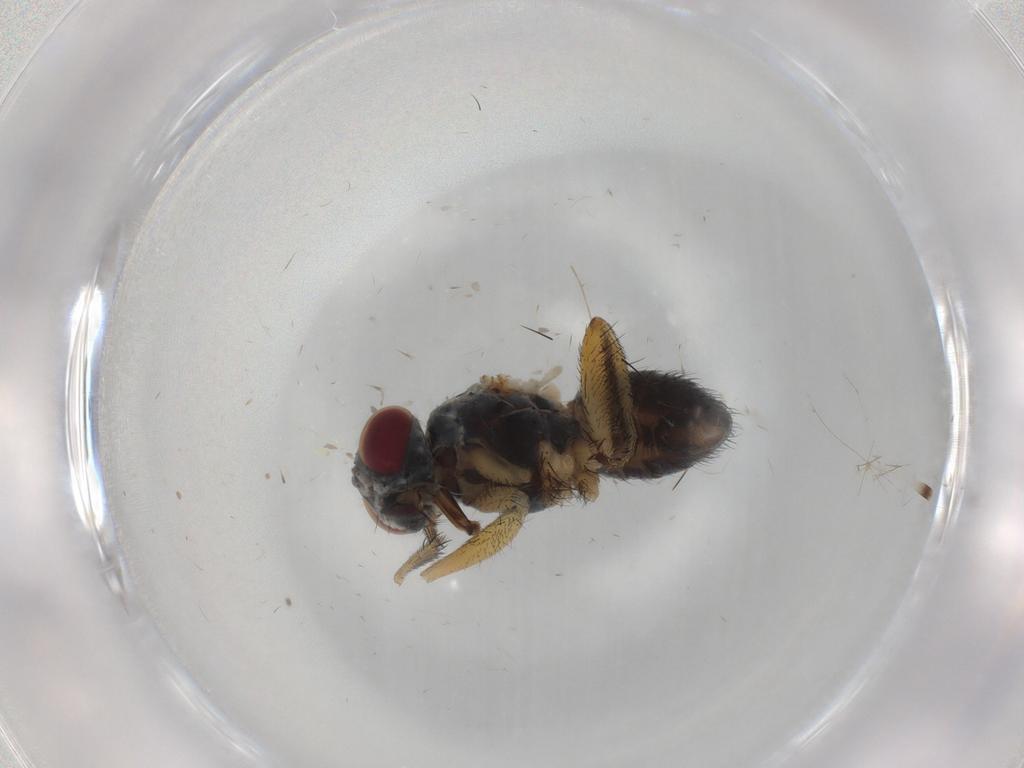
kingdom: Animalia
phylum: Arthropoda
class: Insecta
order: Diptera
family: Muscidae
